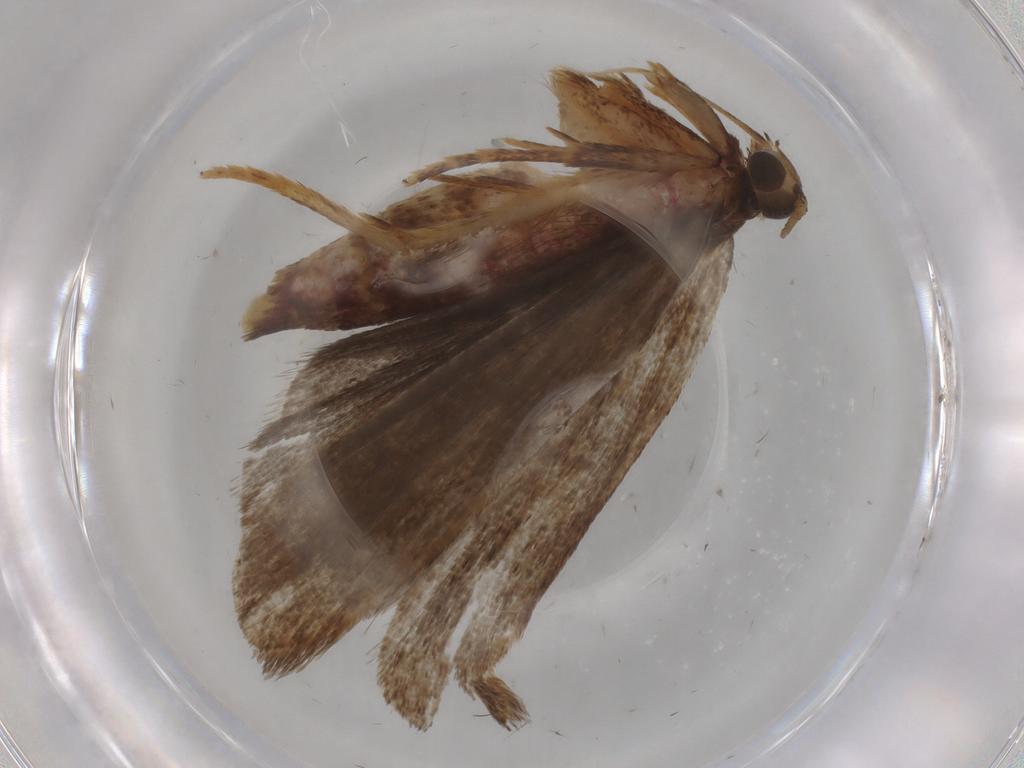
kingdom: Animalia
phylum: Arthropoda
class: Insecta
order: Lepidoptera
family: Autostichidae
